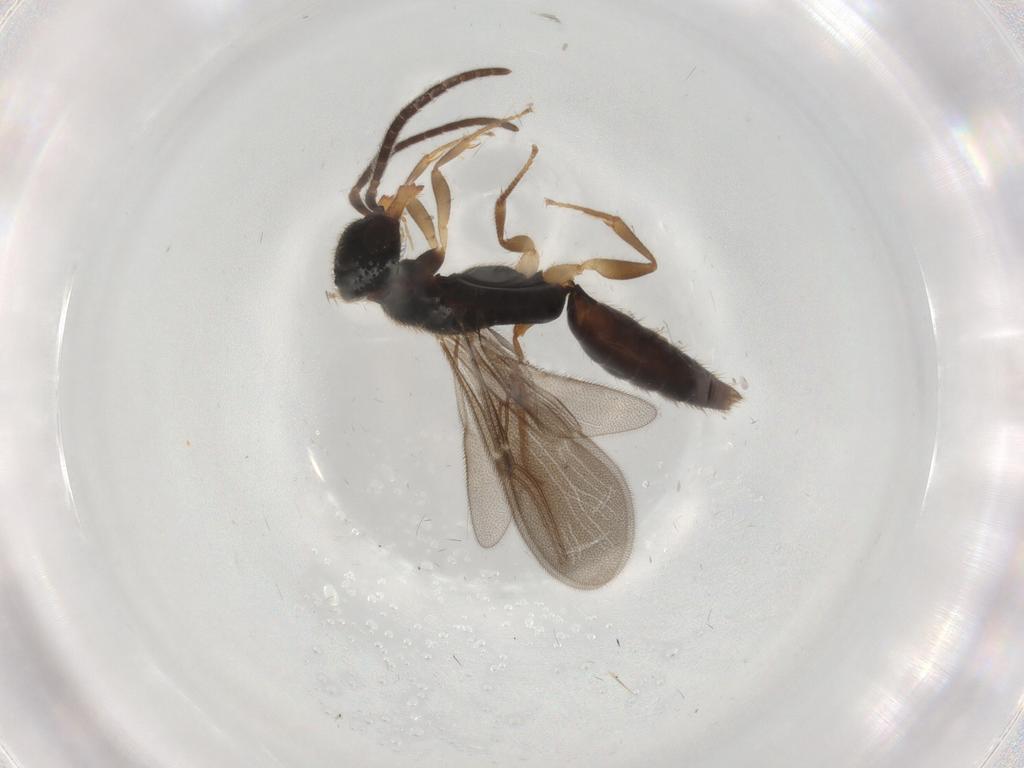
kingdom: Animalia
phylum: Arthropoda
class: Insecta
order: Hymenoptera
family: Bethylidae
